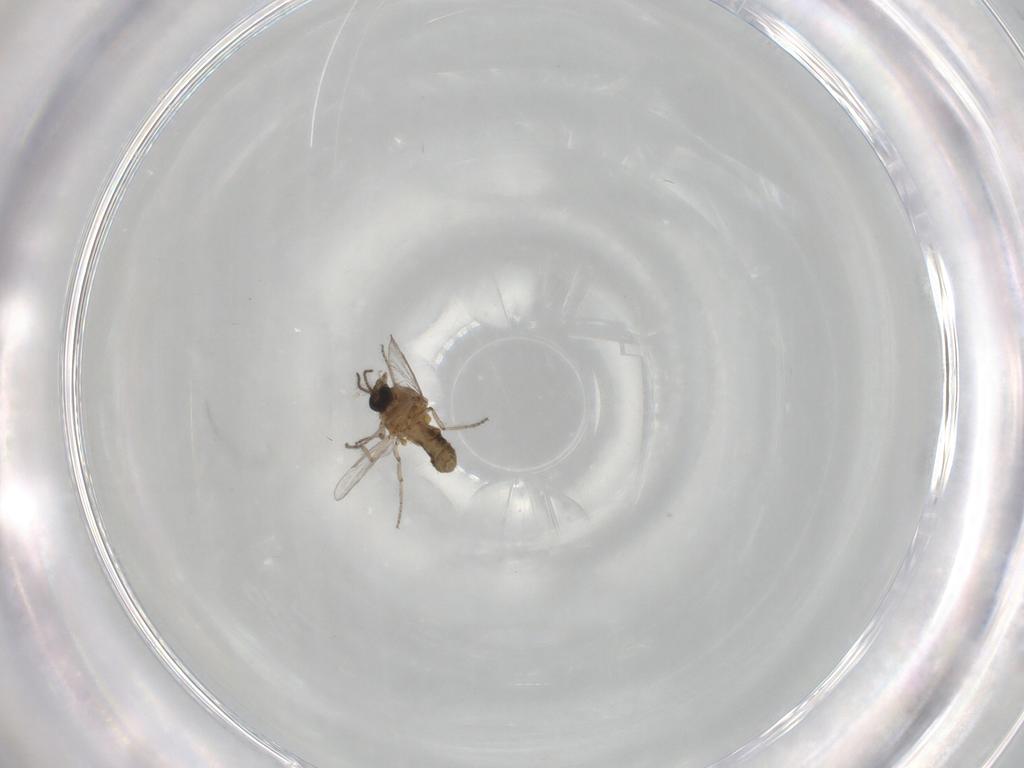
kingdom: Animalia
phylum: Arthropoda
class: Insecta
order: Diptera
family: Ceratopogonidae
